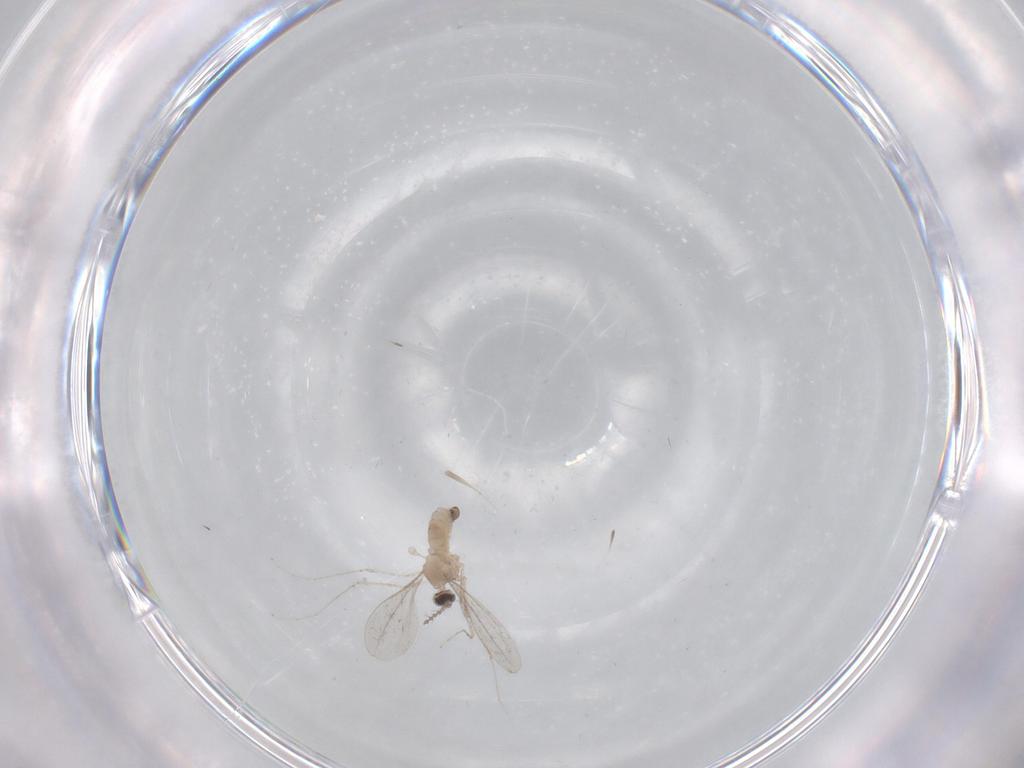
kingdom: Animalia
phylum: Arthropoda
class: Insecta
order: Diptera
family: Cecidomyiidae
